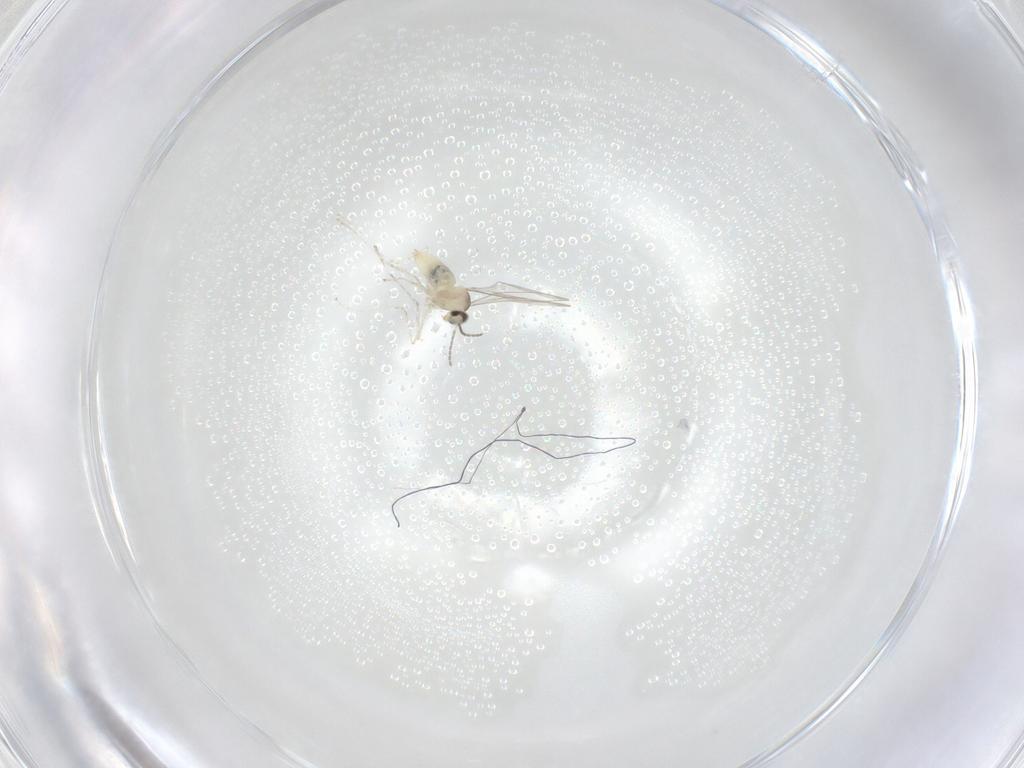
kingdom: Animalia
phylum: Arthropoda
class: Insecta
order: Diptera
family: Cecidomyiidae
